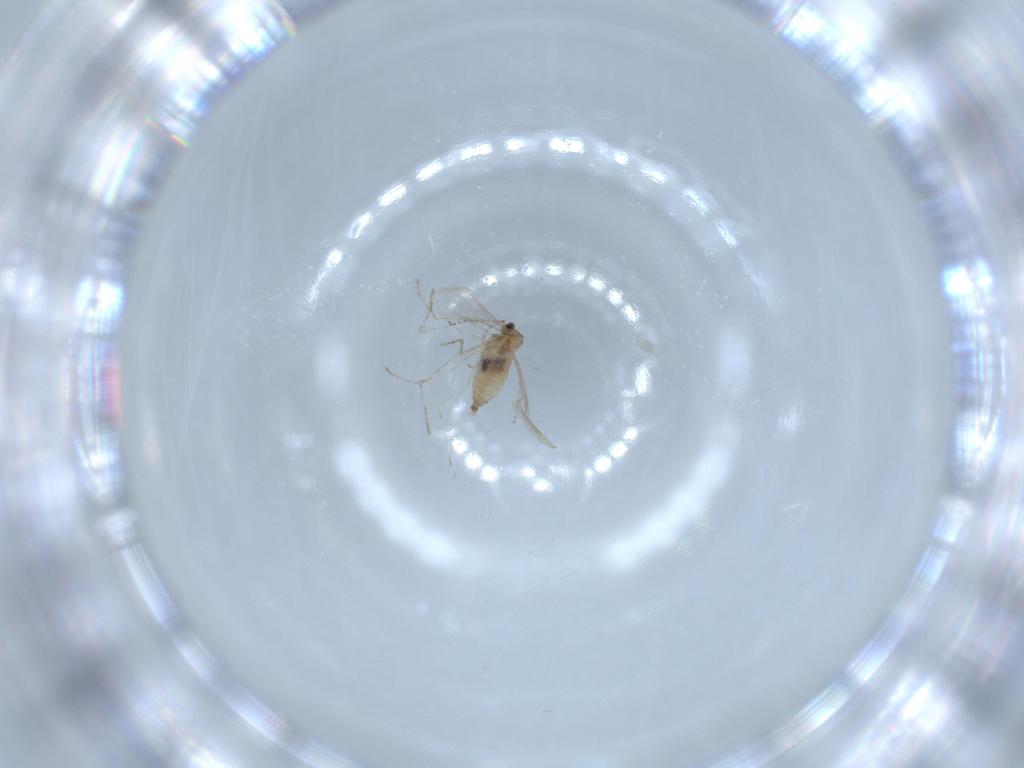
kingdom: Animalia
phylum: Arthropoda
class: Insecta
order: Diptera
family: Cecidomyiidae
